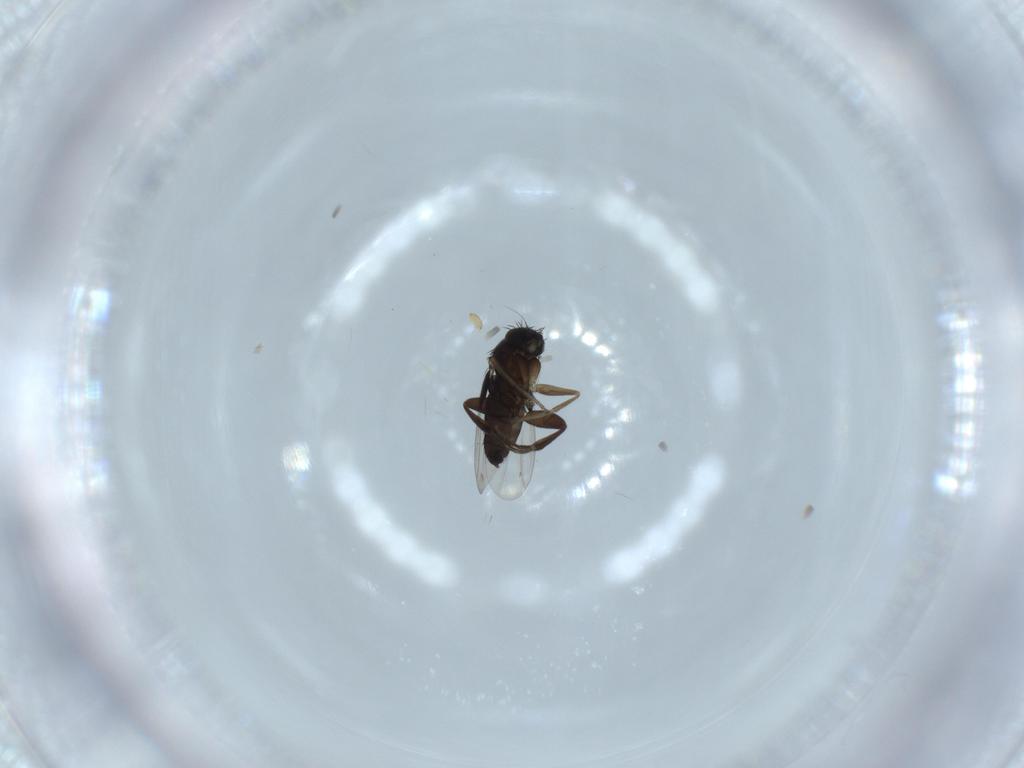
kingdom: Animalia
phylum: Arthropoda
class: Insecta
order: Diptera
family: Phoridae
